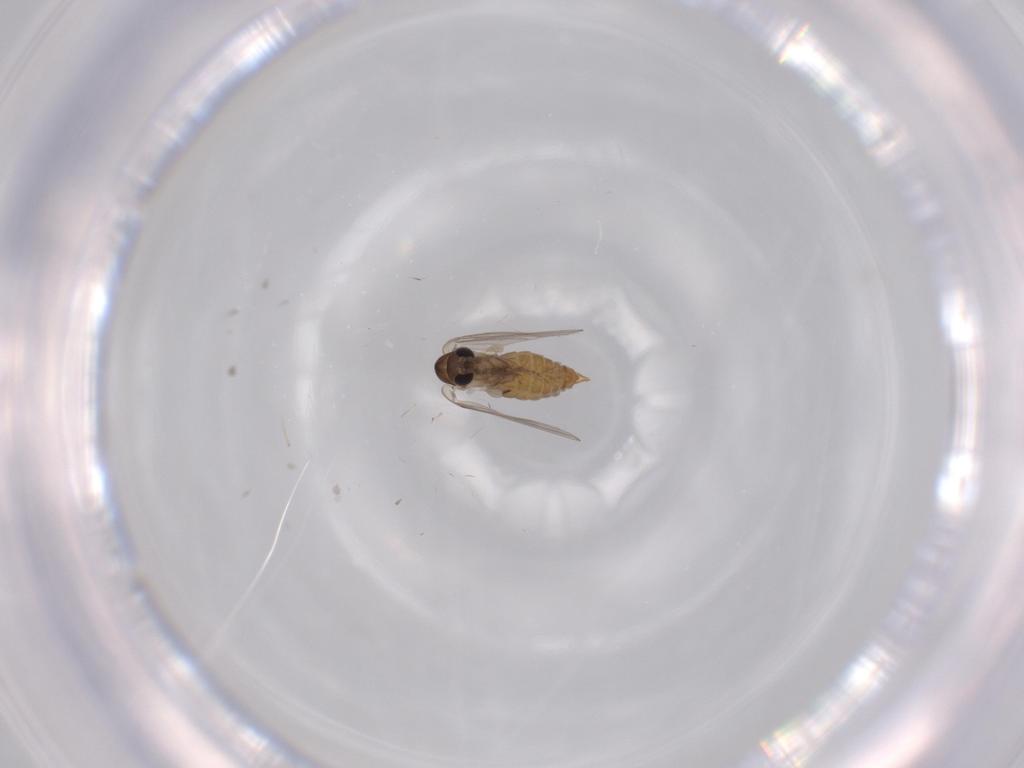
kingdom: Animalia
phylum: Arthropoda
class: Insecta
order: Diptera
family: Psychodidae
